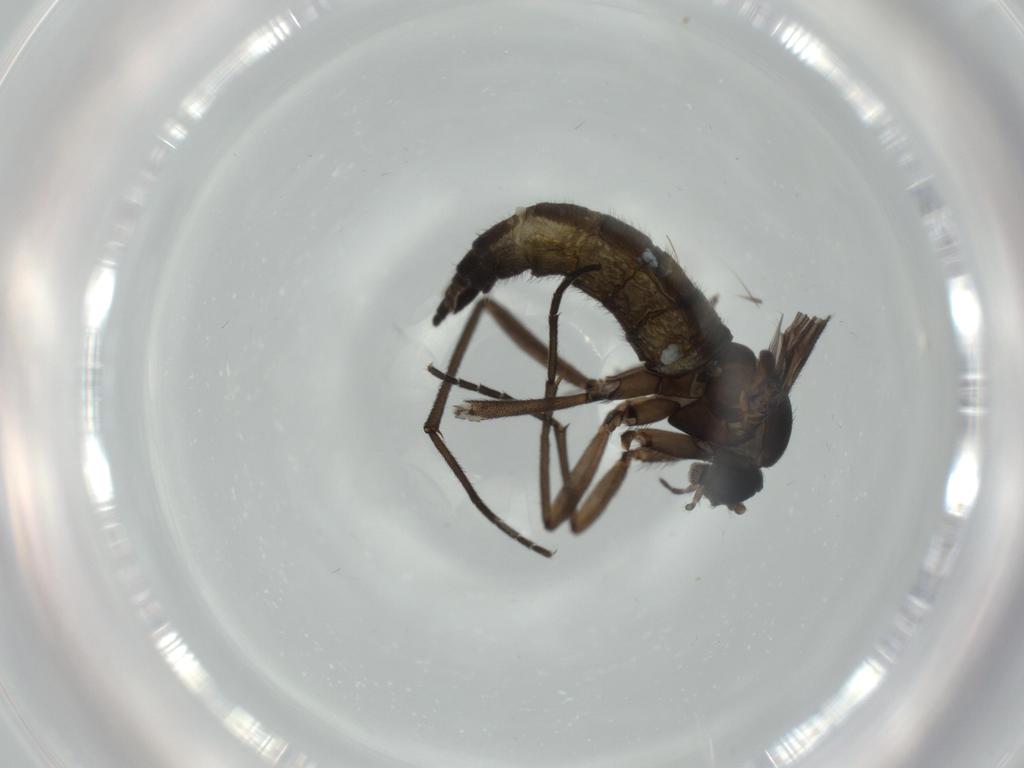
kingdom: Animalia
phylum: Arthropoda
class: Insecta
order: Diptera
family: Sciaridae
